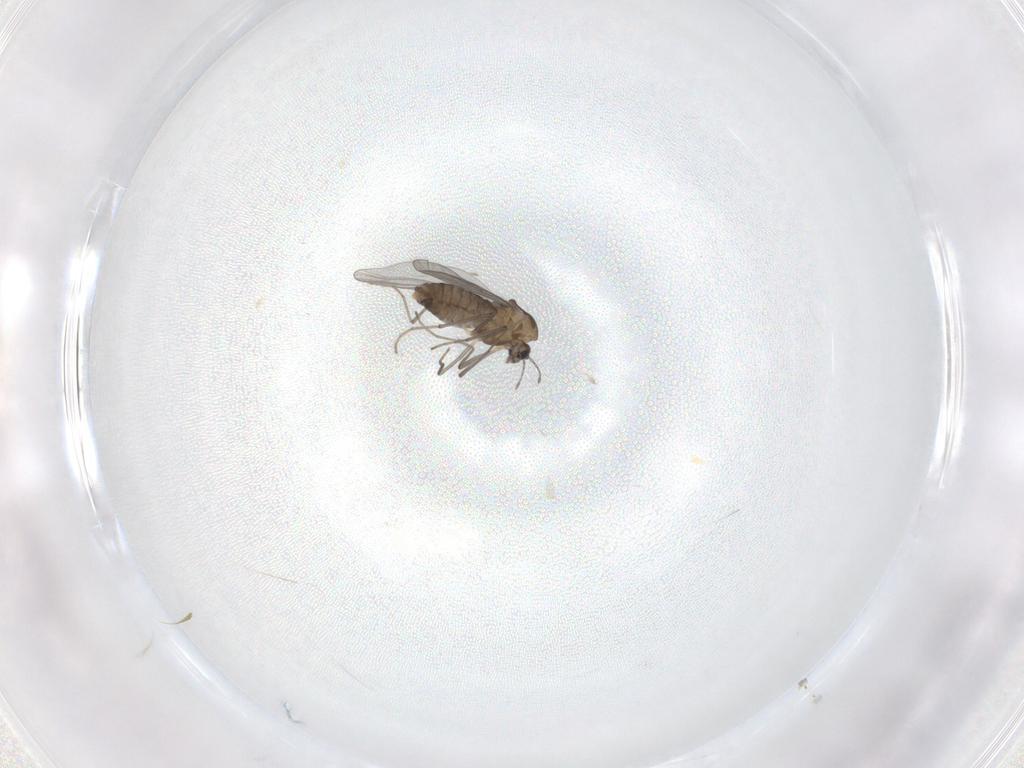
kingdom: Animalia
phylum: Arthropoda
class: Insecta
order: Diptera
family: Chironomidae
